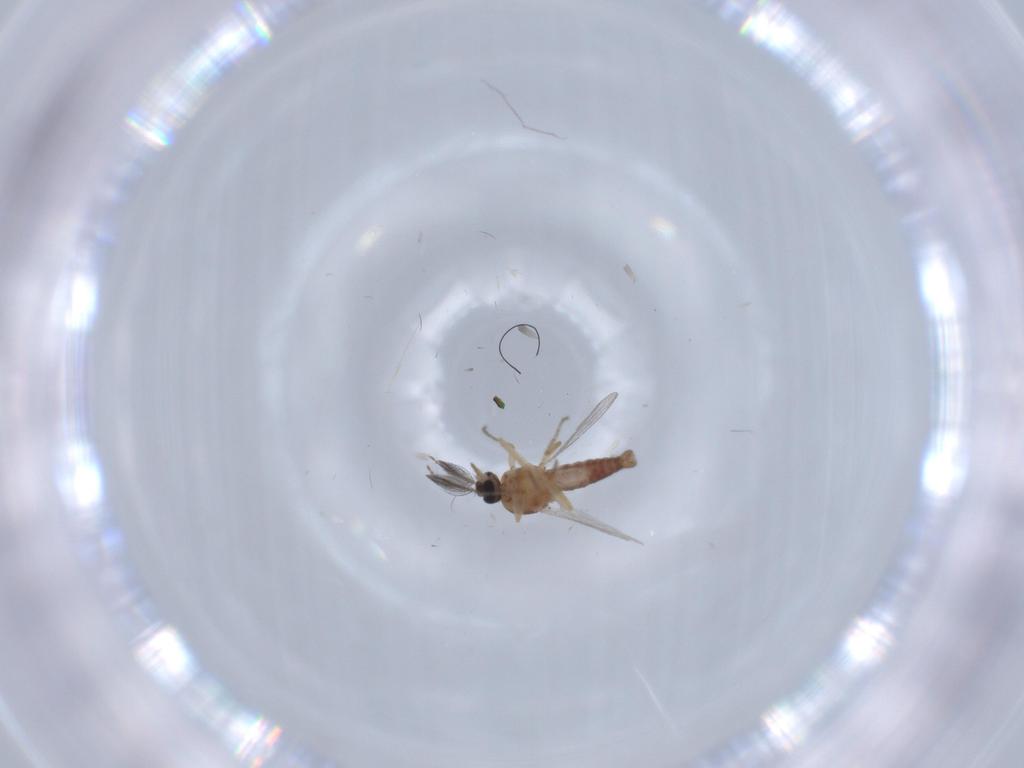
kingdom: Animalia
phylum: Arthropoda
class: Insecta
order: Diptera
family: Ceratopogonidae
